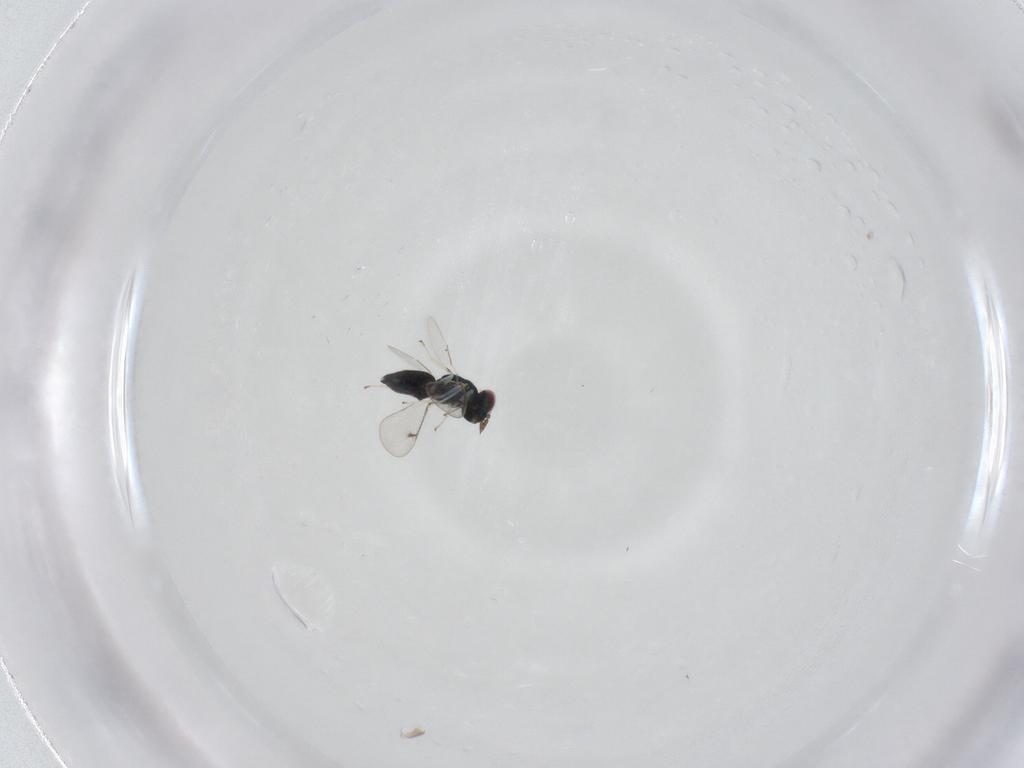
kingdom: Animalia
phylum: Arthropoda
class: Insecta
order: Hymenoptera
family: Eulophidae
